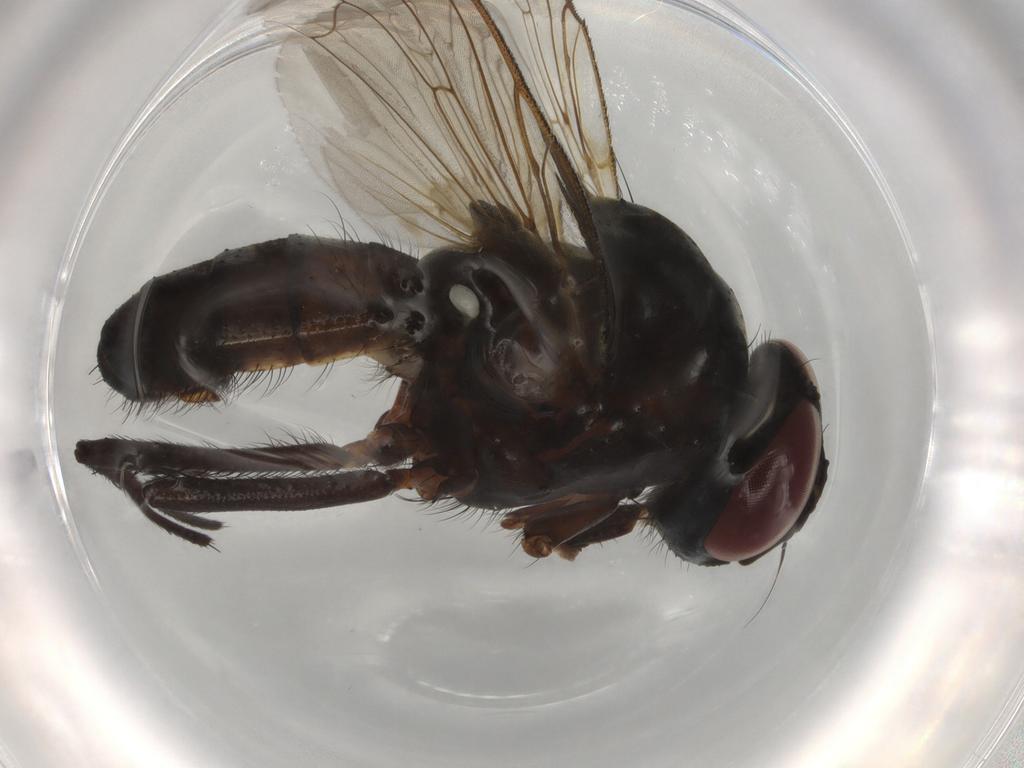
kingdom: Animalia
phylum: Arthropoda
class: Insecta
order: Diptera
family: Anthomyiidae
